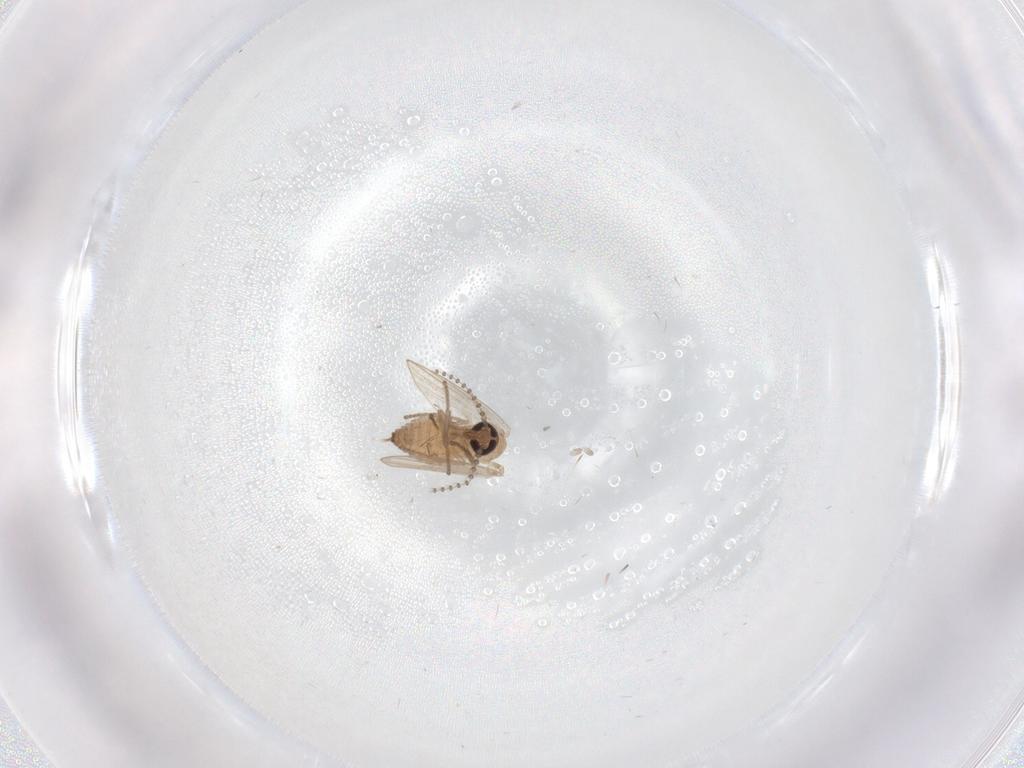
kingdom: Animalia
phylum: Arthropoda
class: Insecta
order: Diptera
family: Psychodidae
